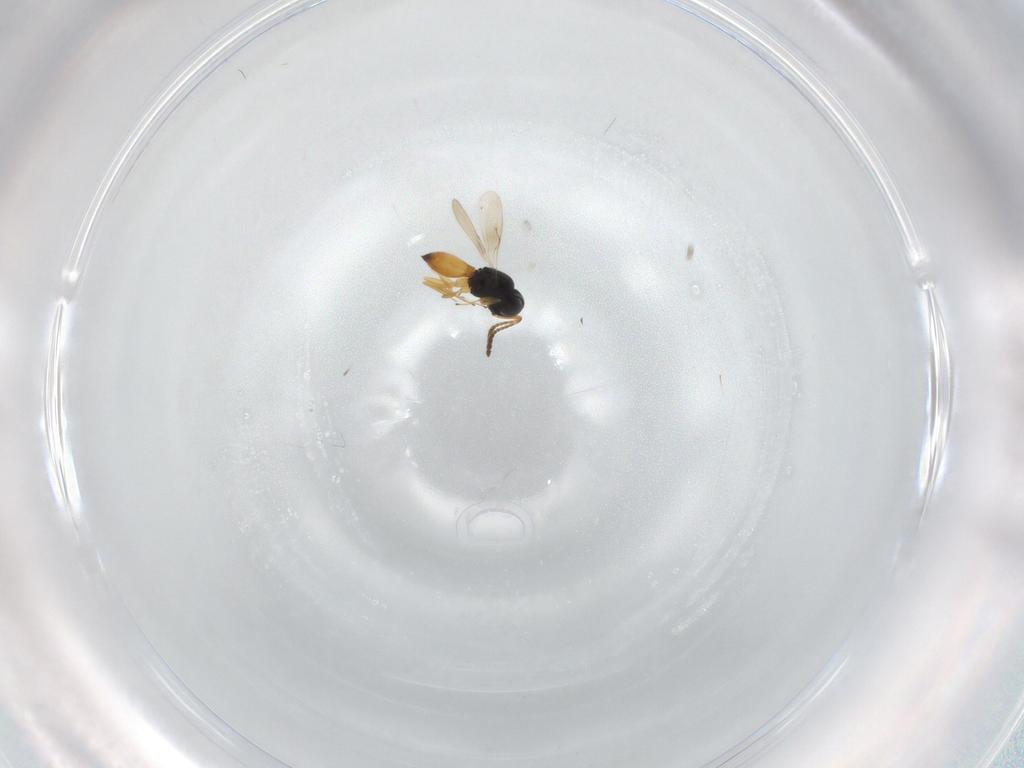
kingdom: Animalia
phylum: Arthropoda
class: Insecta
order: Hymenoptera
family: Scelionidae
